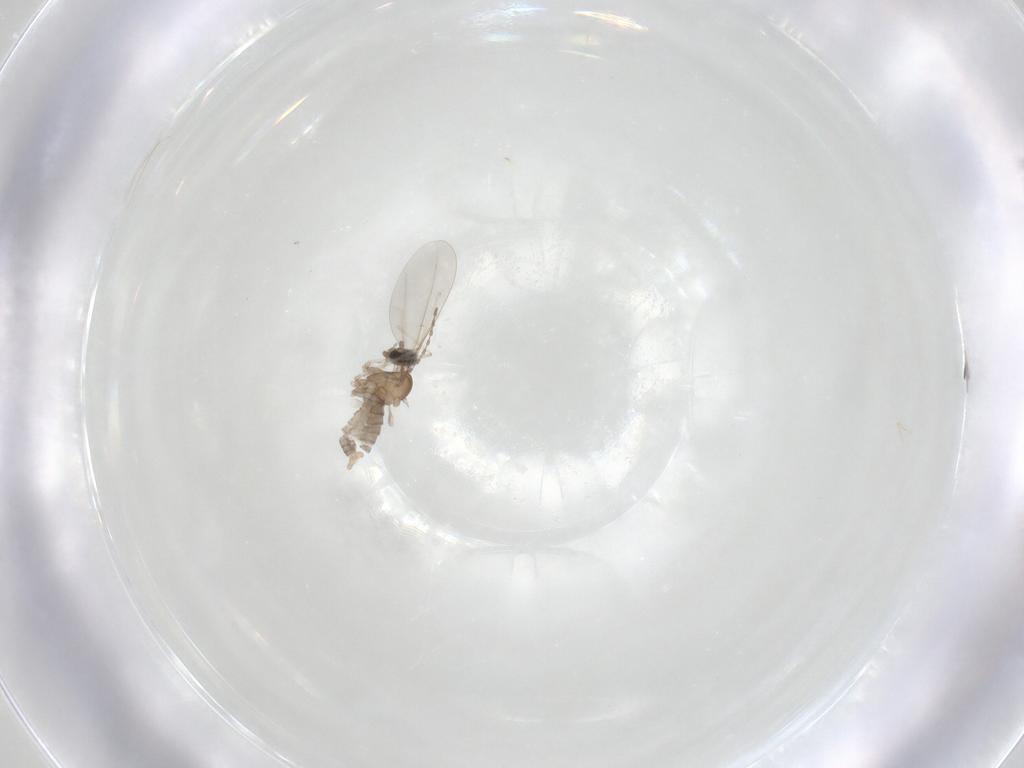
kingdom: Animalia
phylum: Arthropoda
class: Insecta
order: Diptera
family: Cecidomyiidae
